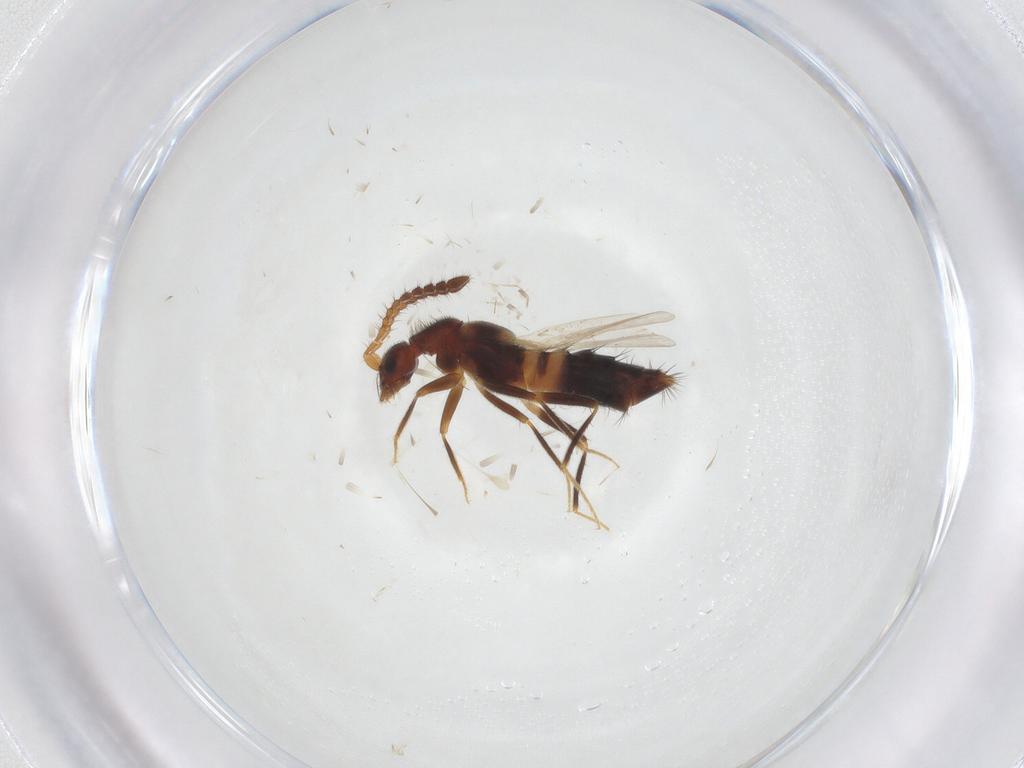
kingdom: Animalia
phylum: Arthropoda
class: Insecta
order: Coleoptera
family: Staphylinidae
